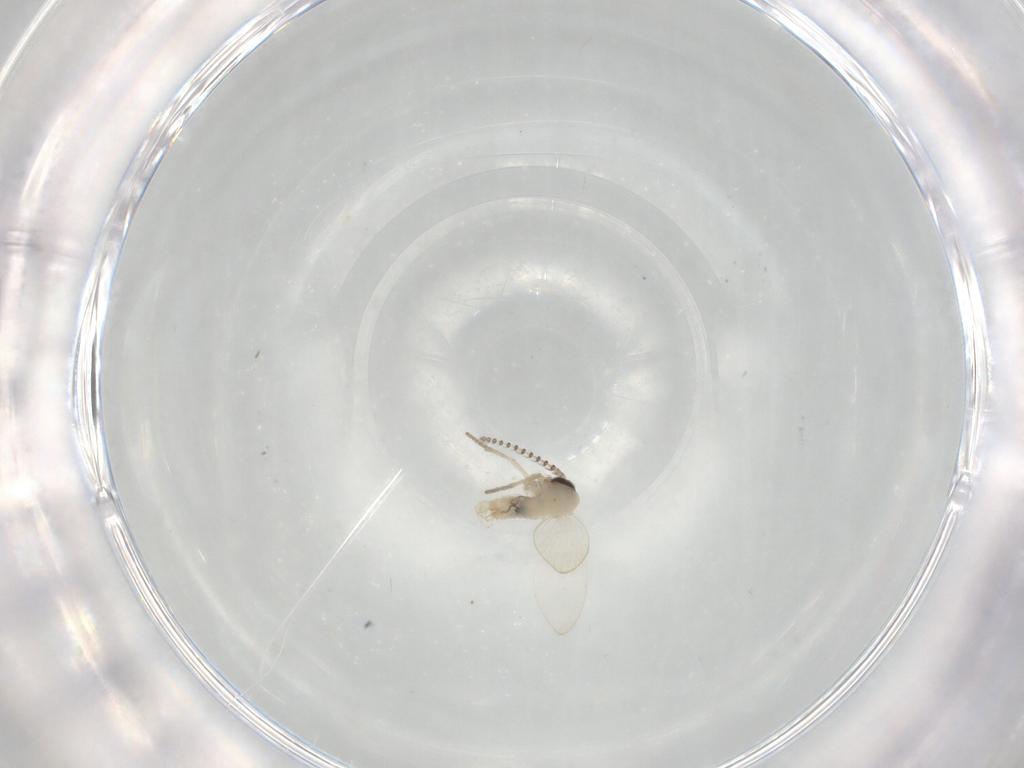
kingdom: Animalia
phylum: Arthropoda
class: Insecta
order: Diptera
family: Psychodidae
